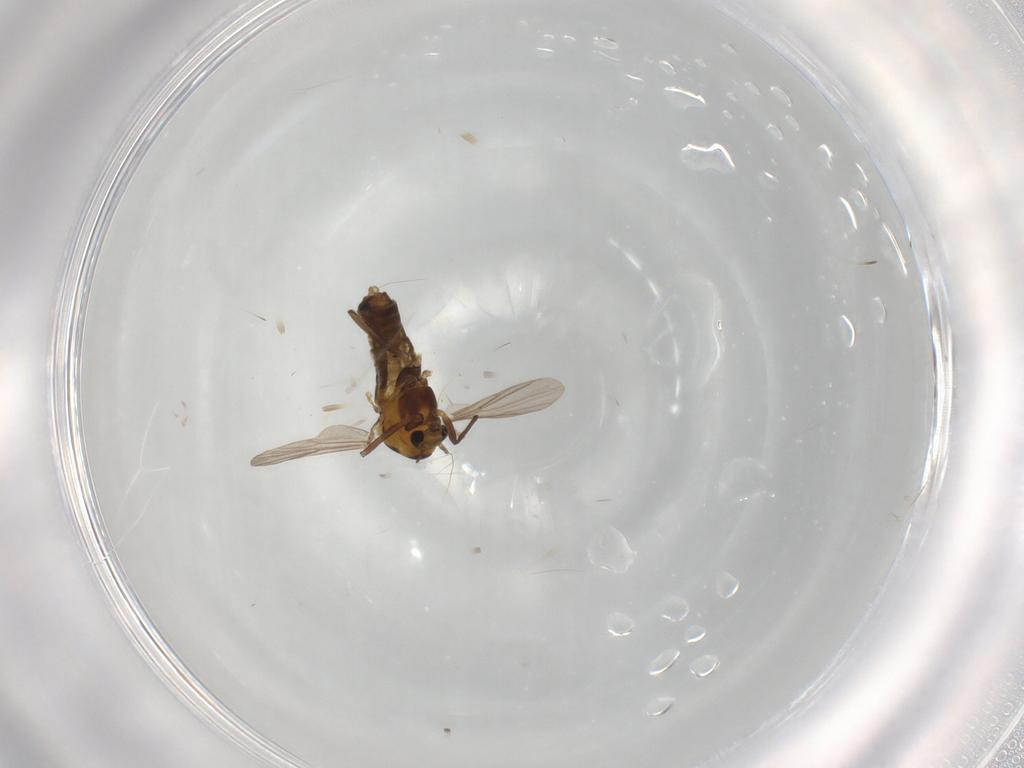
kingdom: Animalia
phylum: Arthropoda
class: Insecta
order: Diptera
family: Chironomidae
